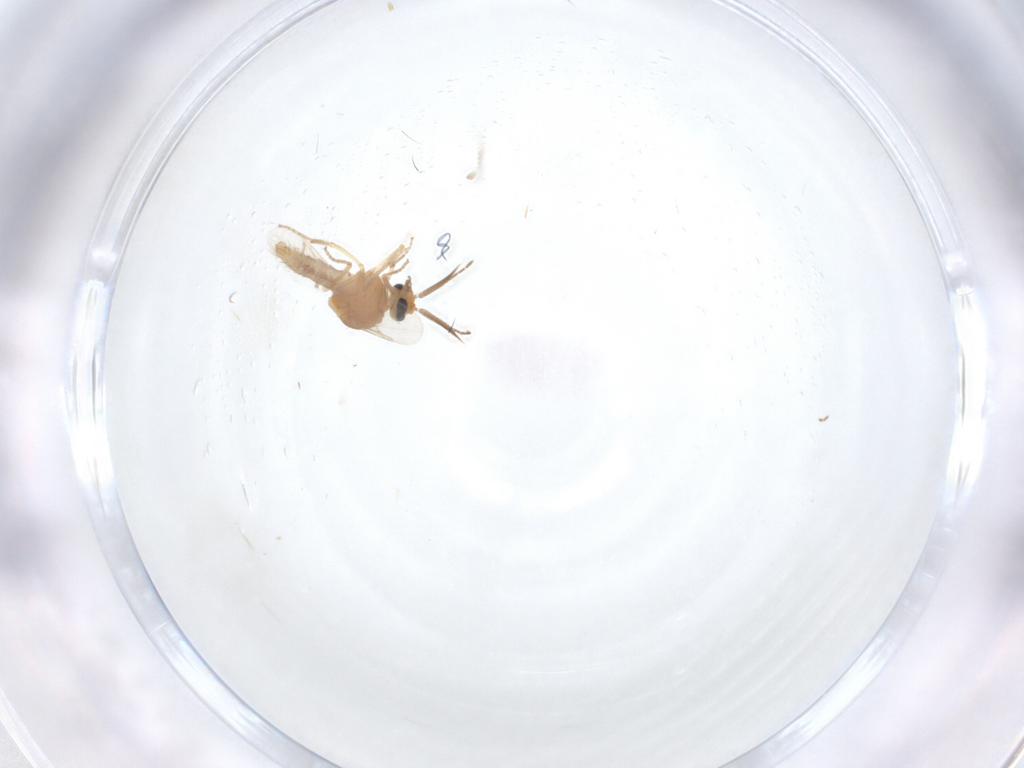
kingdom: Animalia
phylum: Arthropoda
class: Insecta
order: Diptera
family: Ceratopogonidae
